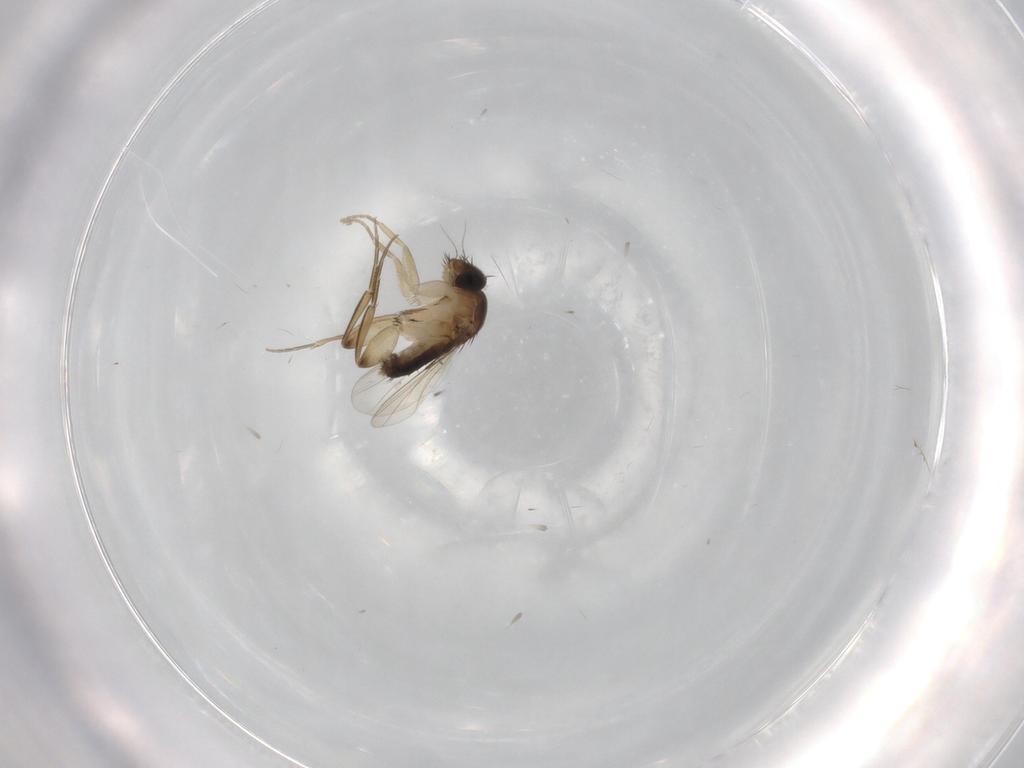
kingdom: Animalia
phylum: Arthropoda
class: Insecta
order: Diptera
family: Phoridae
